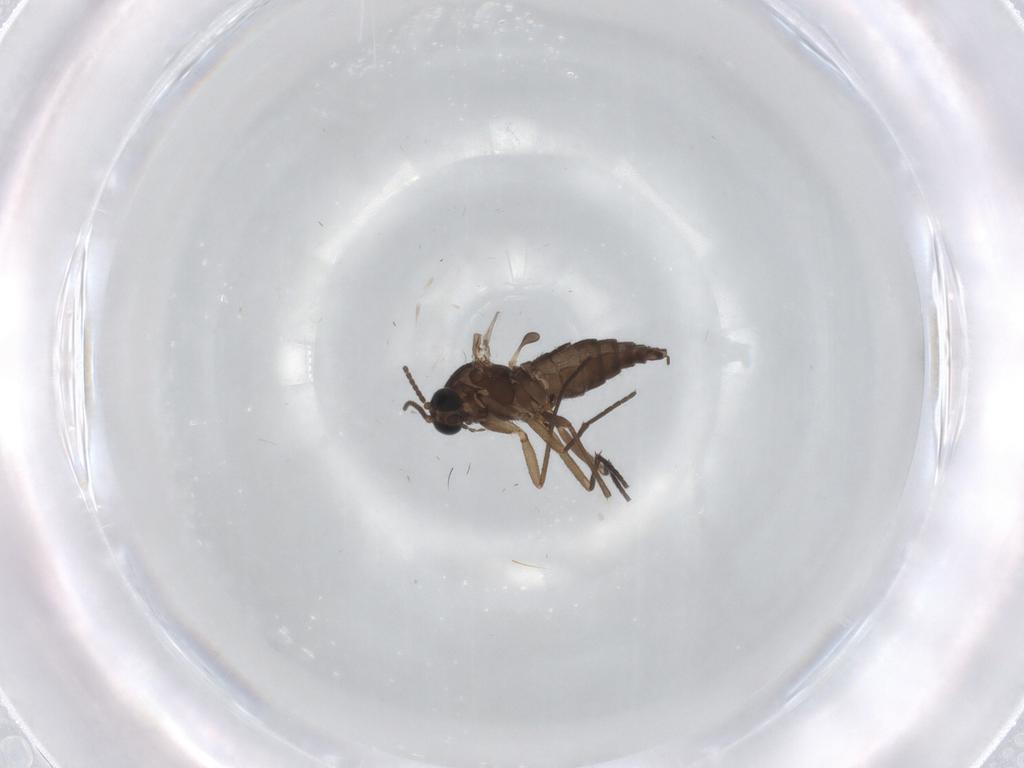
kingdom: Animalia
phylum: Arthropoda
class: Insecta
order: Diptera
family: Sciaridae
